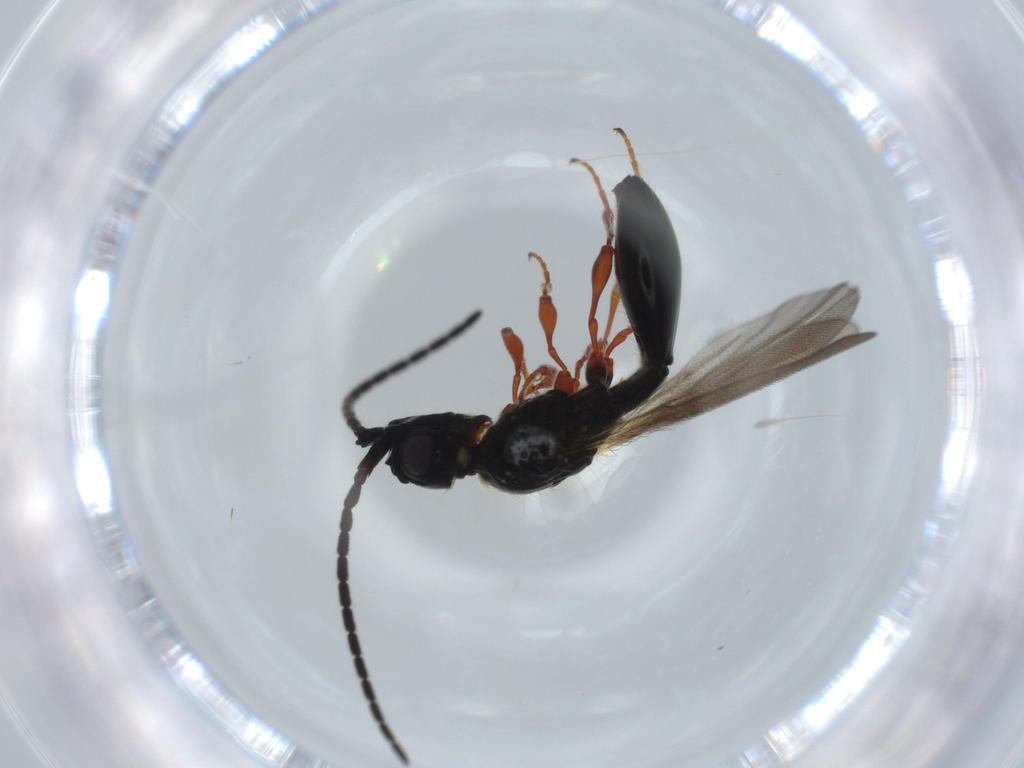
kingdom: Animalia
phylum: Arthropoda
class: Insecta
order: Hymenoptera
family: Diapriidae
